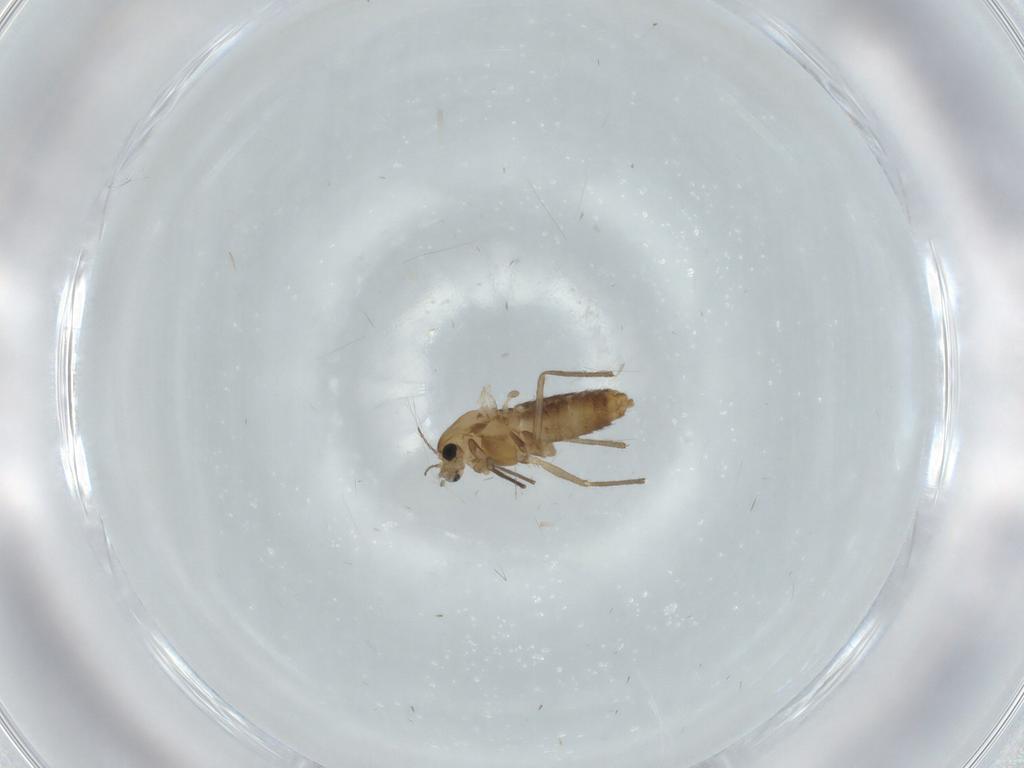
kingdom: Animalia
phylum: Arthropoda
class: Insecta
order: Diptera
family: Chironomidae
